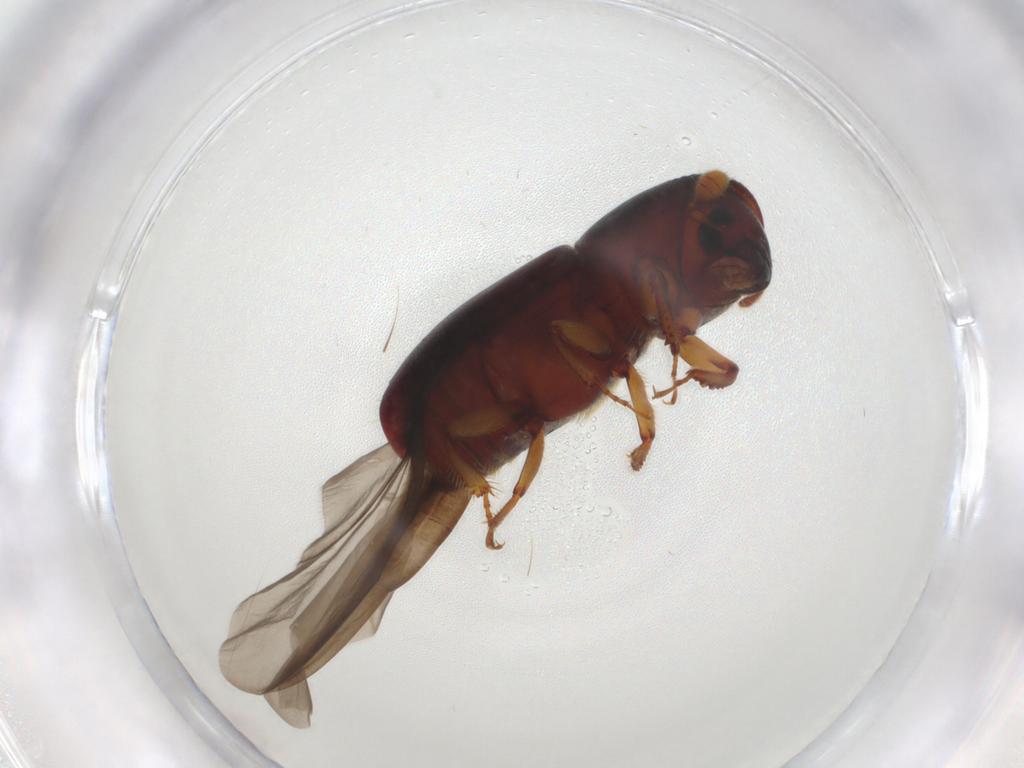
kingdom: Animalia
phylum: Arthropoda
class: Insecta
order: Coleoptera
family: Curculionidae
